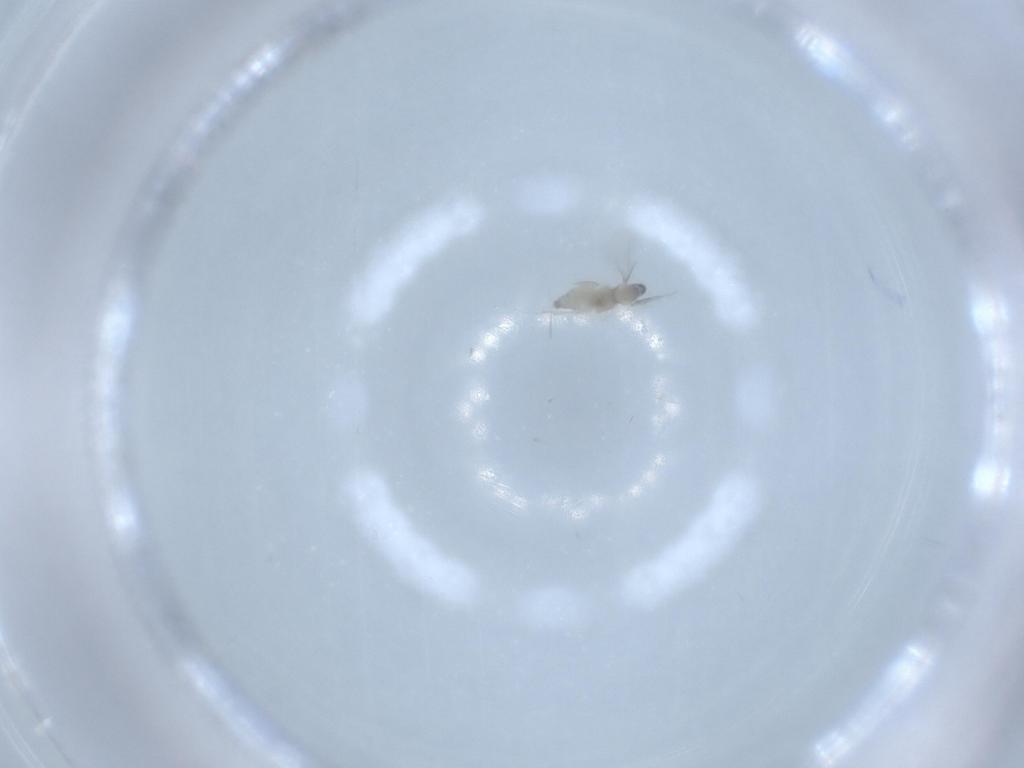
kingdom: Animalia
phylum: Arthropoda
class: Insecta
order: Diptera
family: Cecidomyiidae
